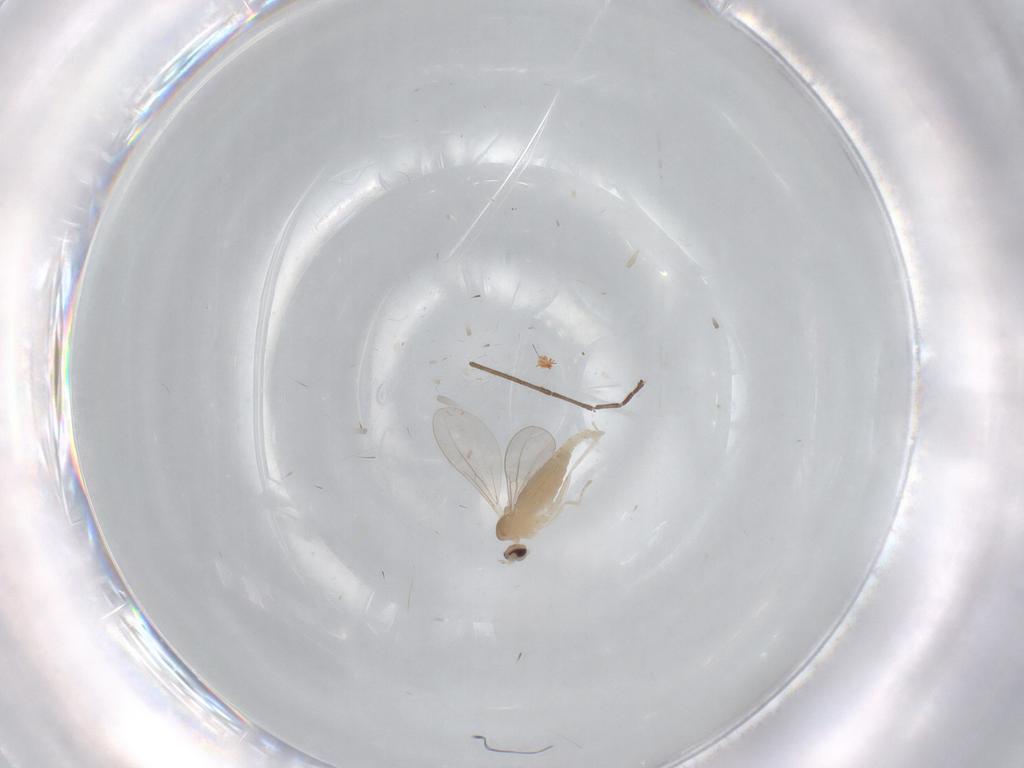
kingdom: Animalia
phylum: Arthropoda
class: Insecta
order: Diptera
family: Cecidomyiidae
